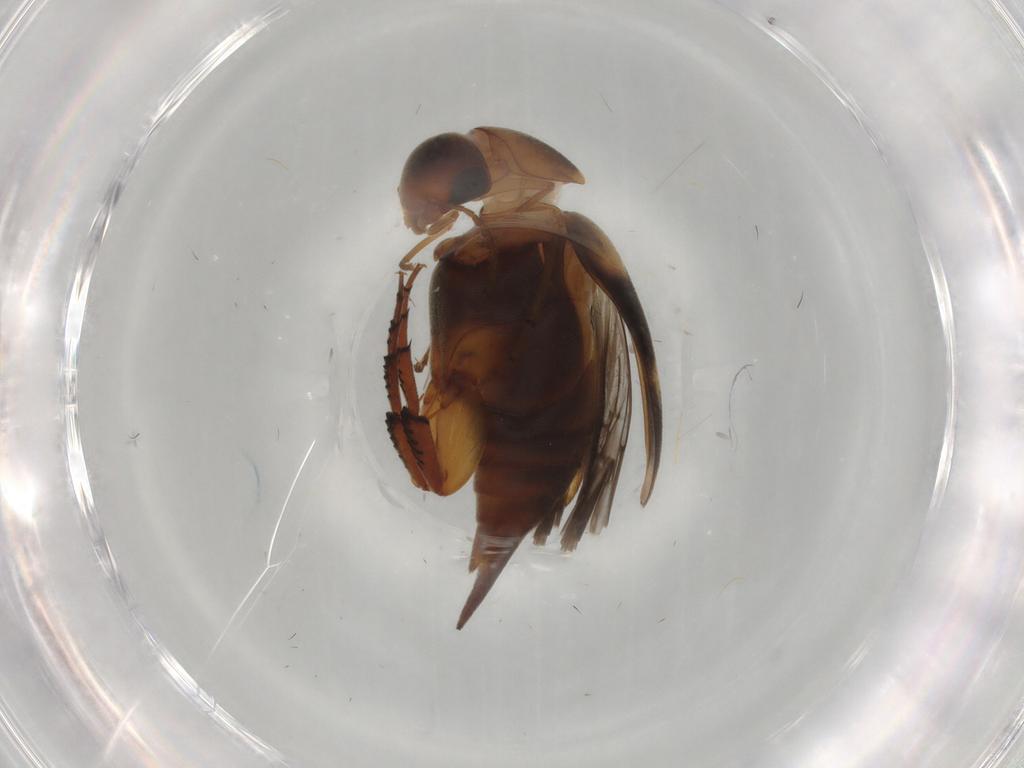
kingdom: Animalia
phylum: Arthropoda
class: Insecta
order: Coleoptera
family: Mordellidae
